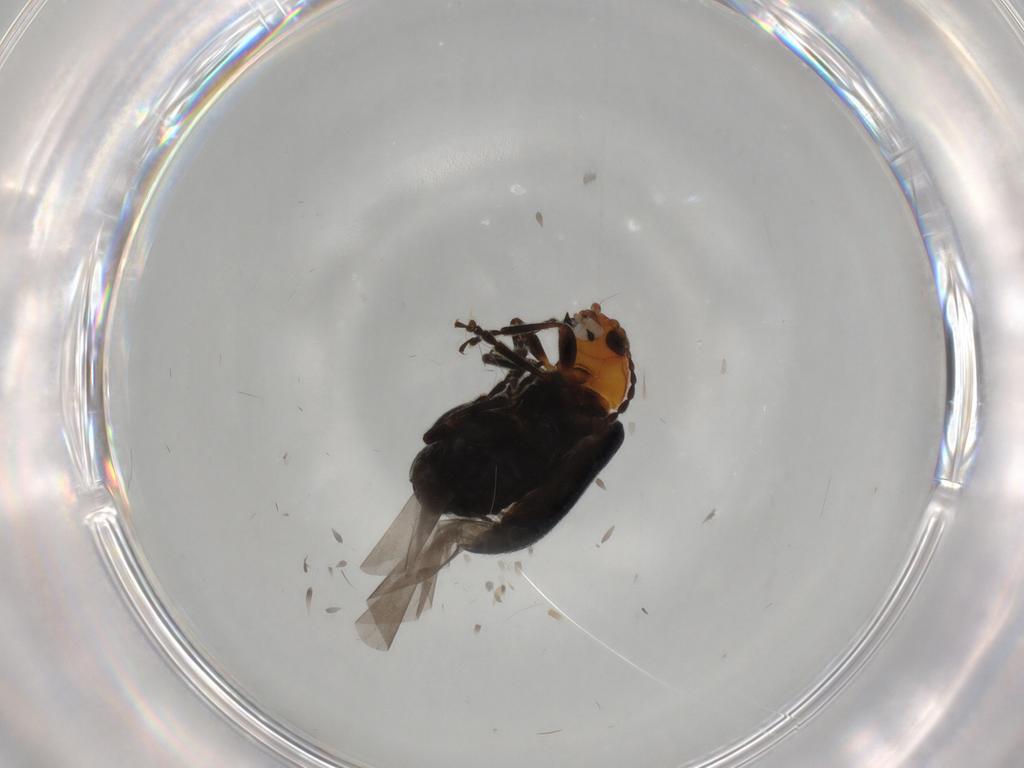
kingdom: Animalia
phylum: Arthropoda
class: Insecta
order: Coleoptera
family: Chrysomelidae
